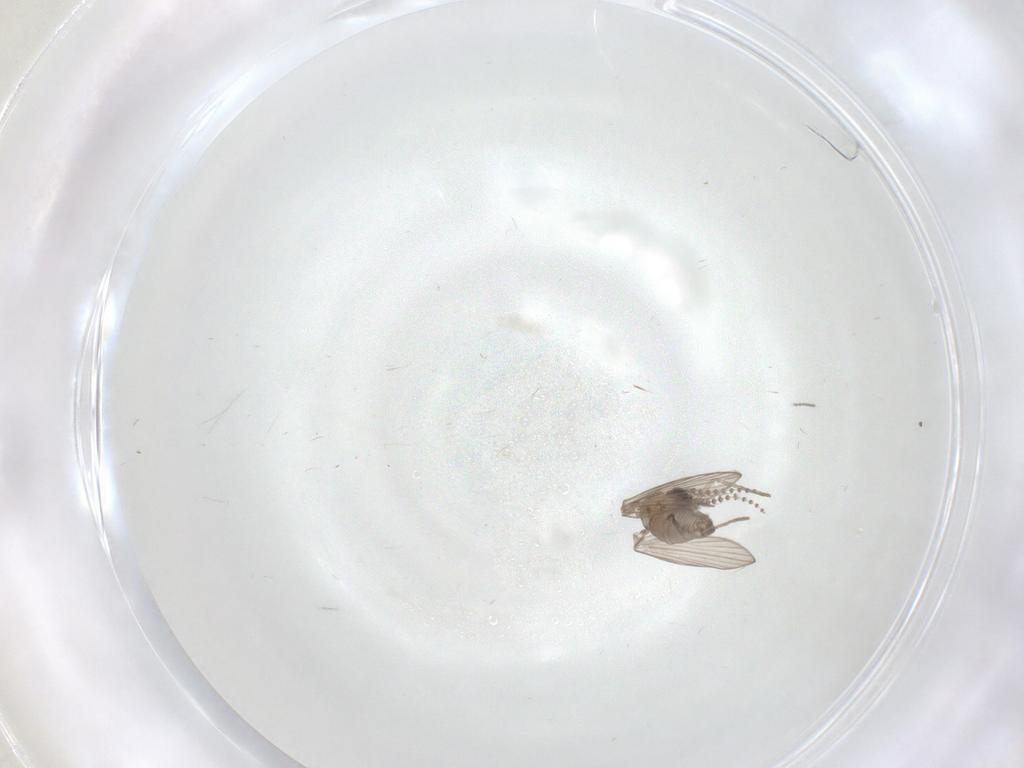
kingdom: Animalia
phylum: Arthropoda
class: Insecta
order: Diptera
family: Psychodidae
